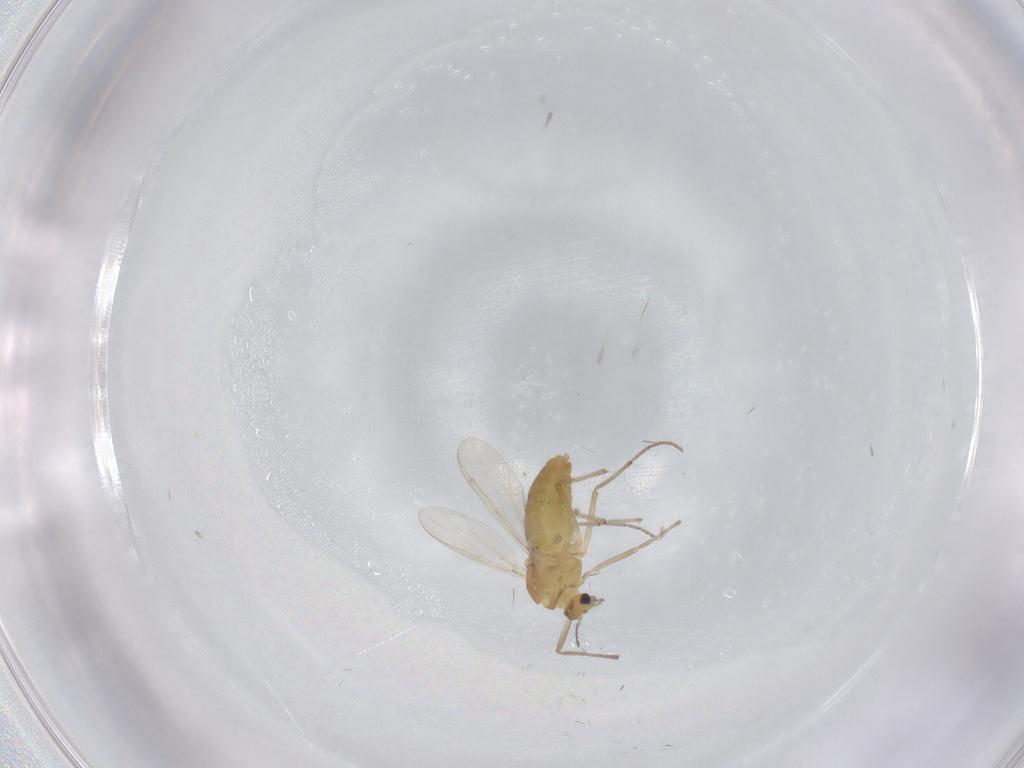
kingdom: Animalia
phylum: Arthropoda
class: Insecta
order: Diptera
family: Chironomidae
